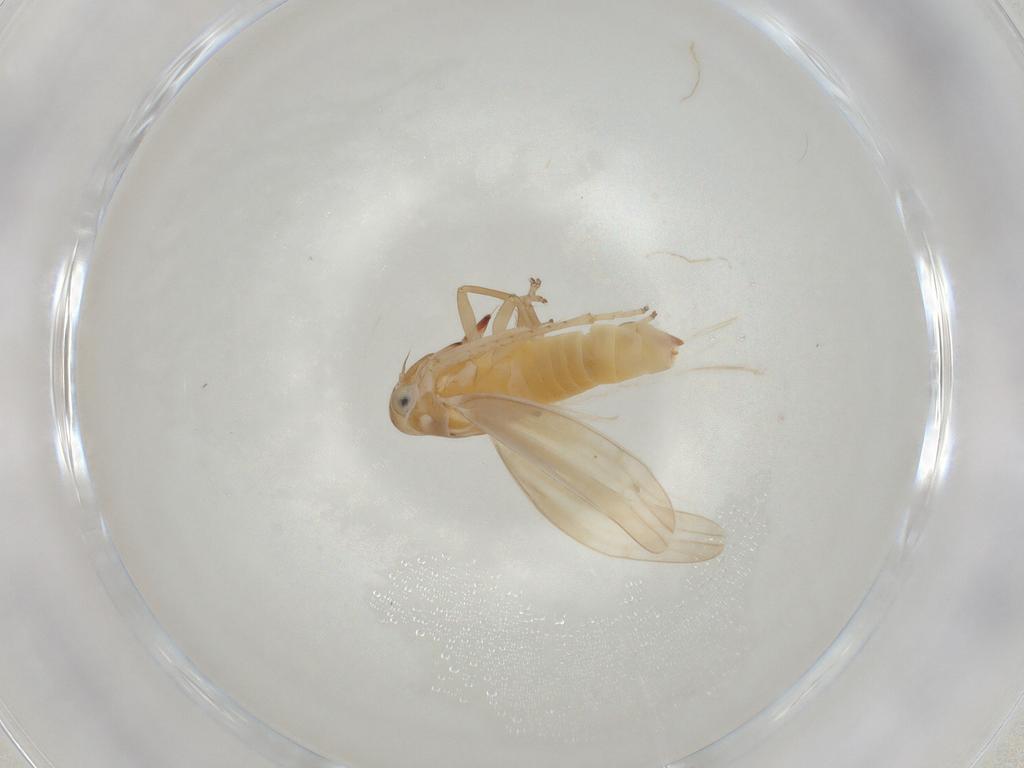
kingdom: Animalia
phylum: Arthropoda
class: Insecta
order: Hemiptera
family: Cicadellidae
